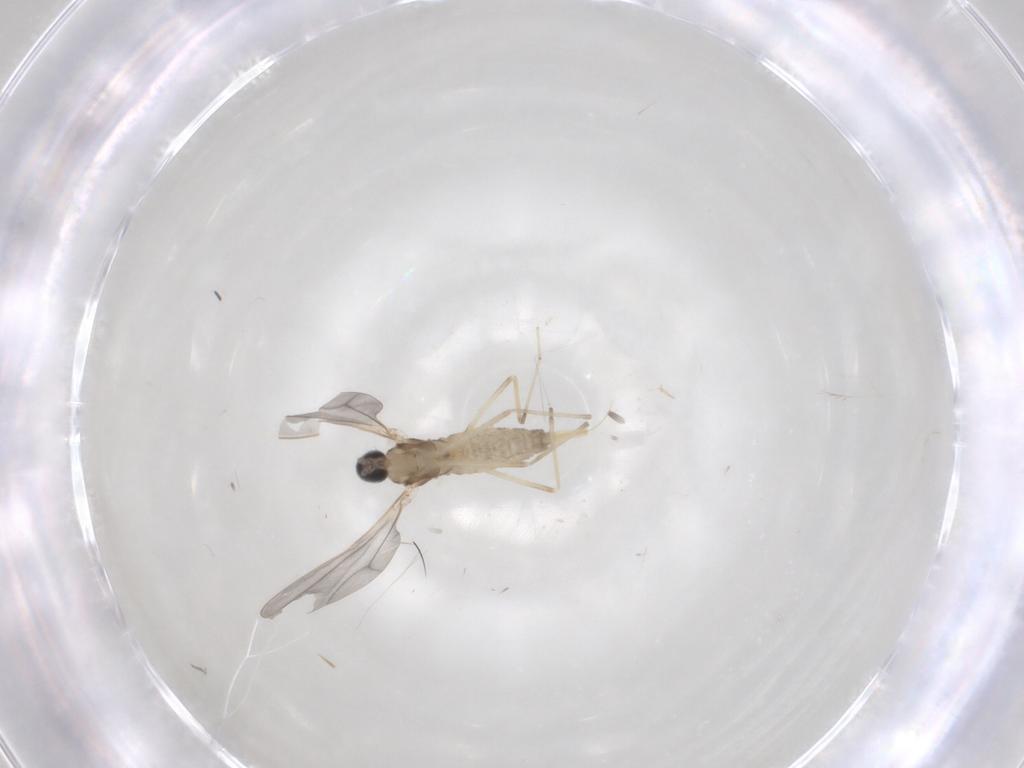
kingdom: Animalia
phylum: Arthropoda
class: Insecta
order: Diptera
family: Cecidomyiidae
